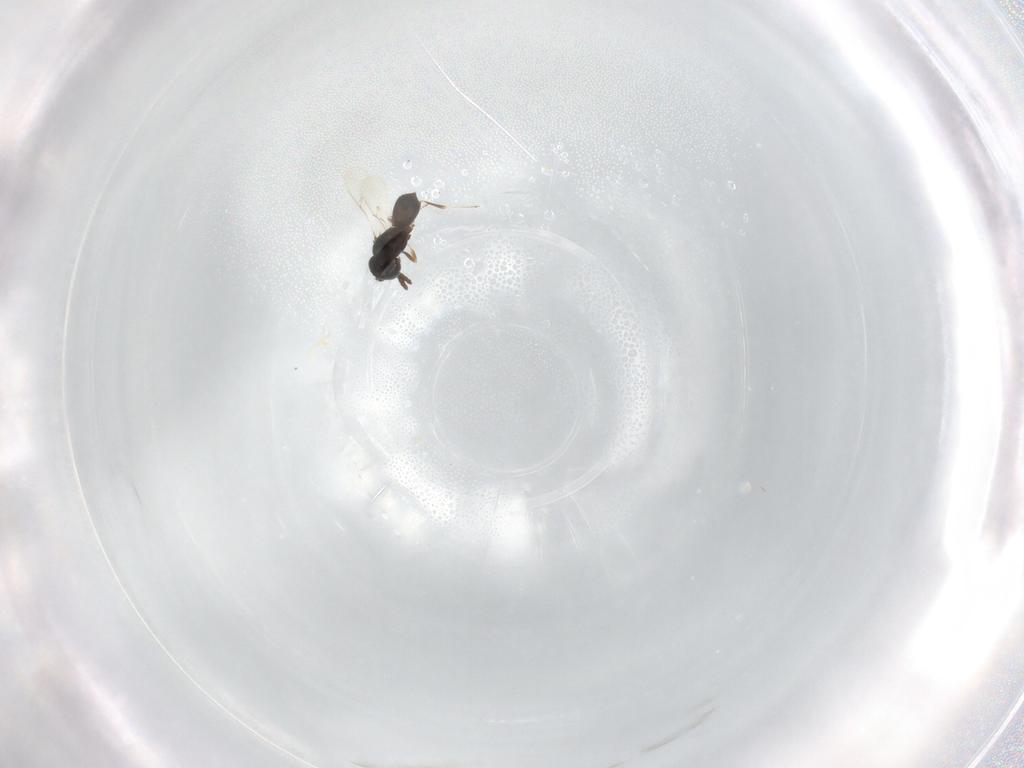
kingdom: Animalia
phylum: Arthropoda
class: Insecta
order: Hymenoptera
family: Scelionidae
